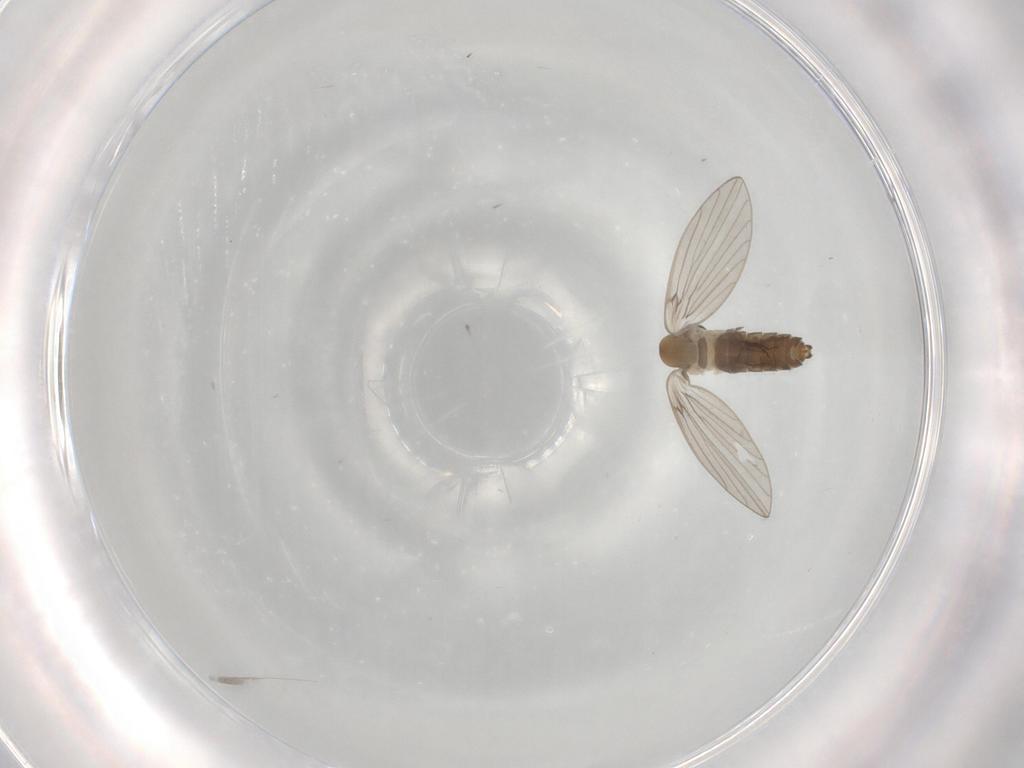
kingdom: Animalia
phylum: Arthropoda
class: Insecta
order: Diptera
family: Psychodidae
